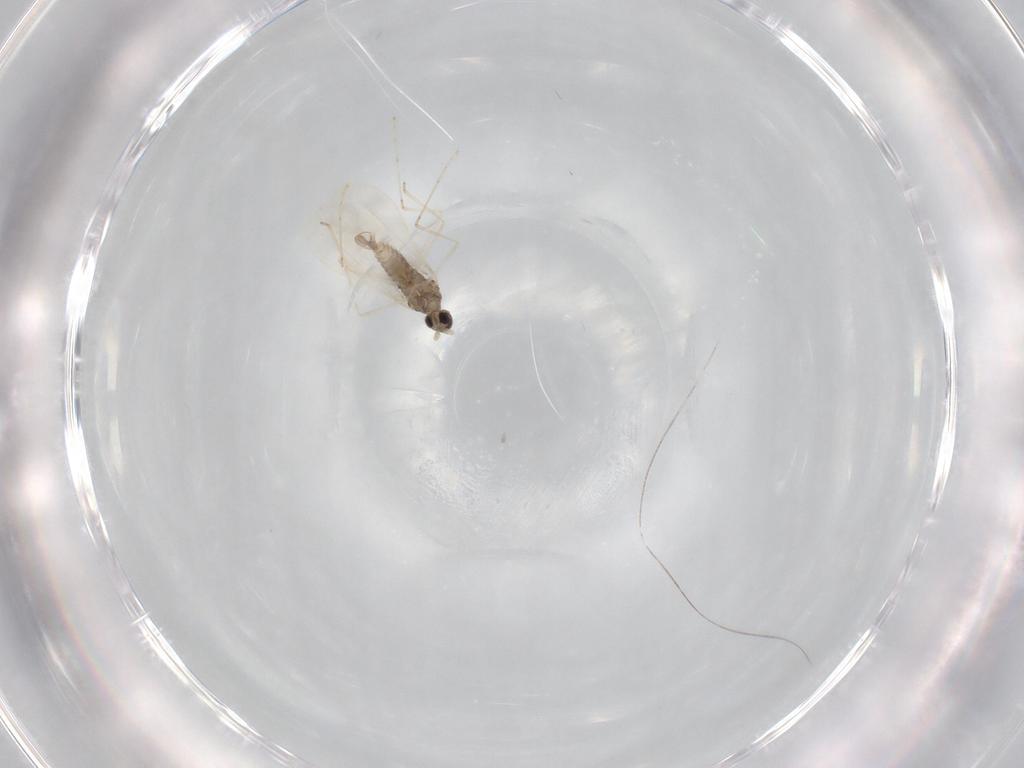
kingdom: Animalia
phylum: Arthropoda
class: Insecta
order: Diptera
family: Cecidomyiidae
